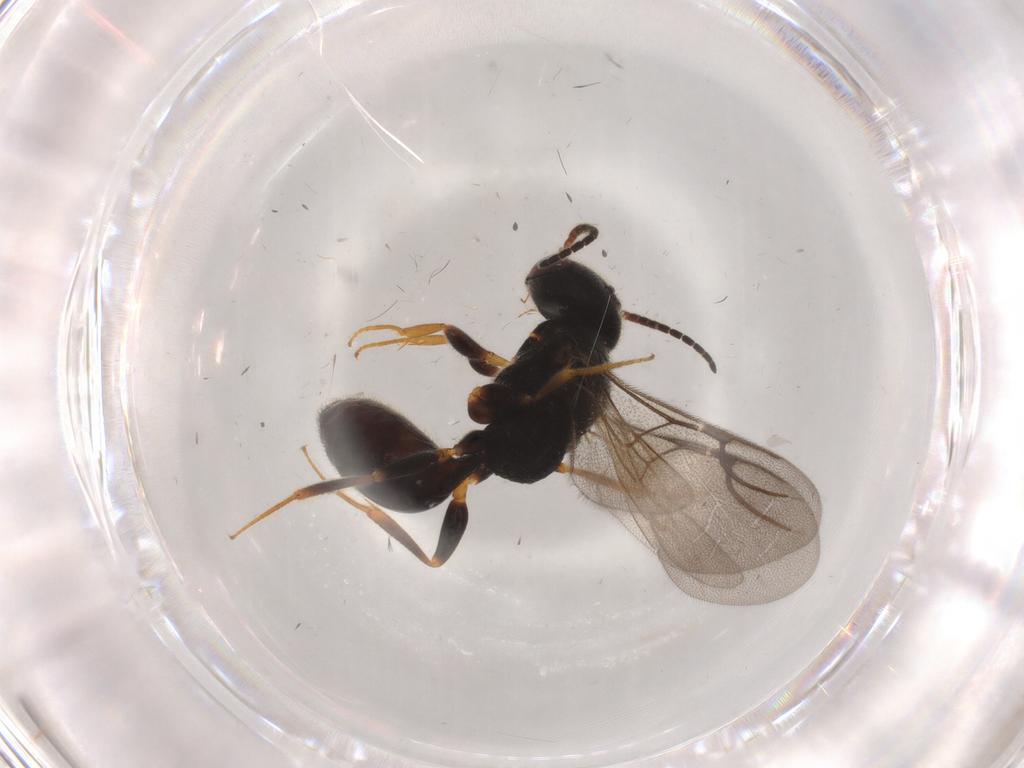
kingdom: Animalia
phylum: Arthropoda
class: Insecta
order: Hymenoptera
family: Bethylidae
